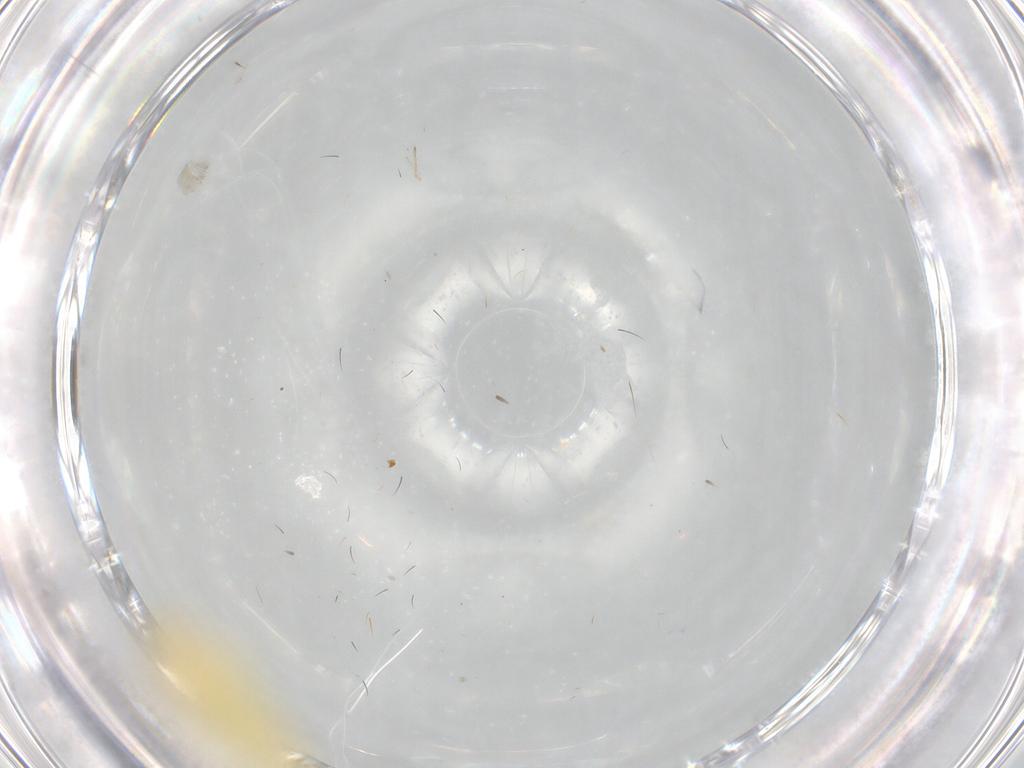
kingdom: Animalia
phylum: Arthropoda
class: Insecta
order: Hemiptera
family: Cicadellidae
